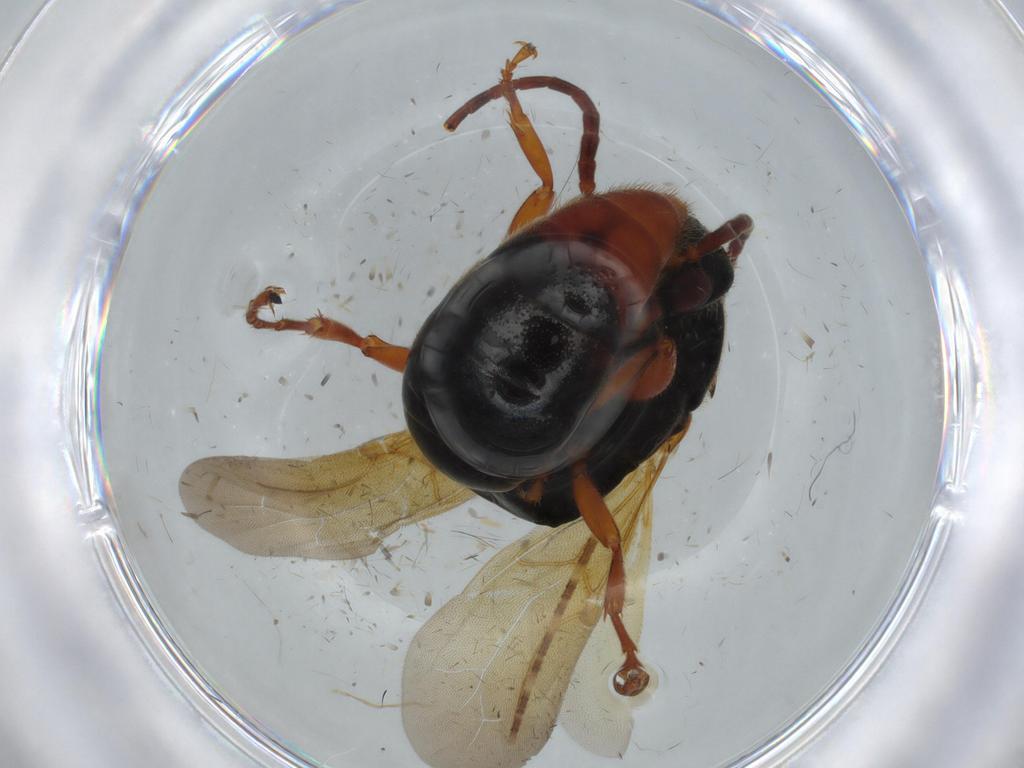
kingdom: Animalia
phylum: Arthropoda
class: Insecta
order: Hymenoptera
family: Bethylidae
